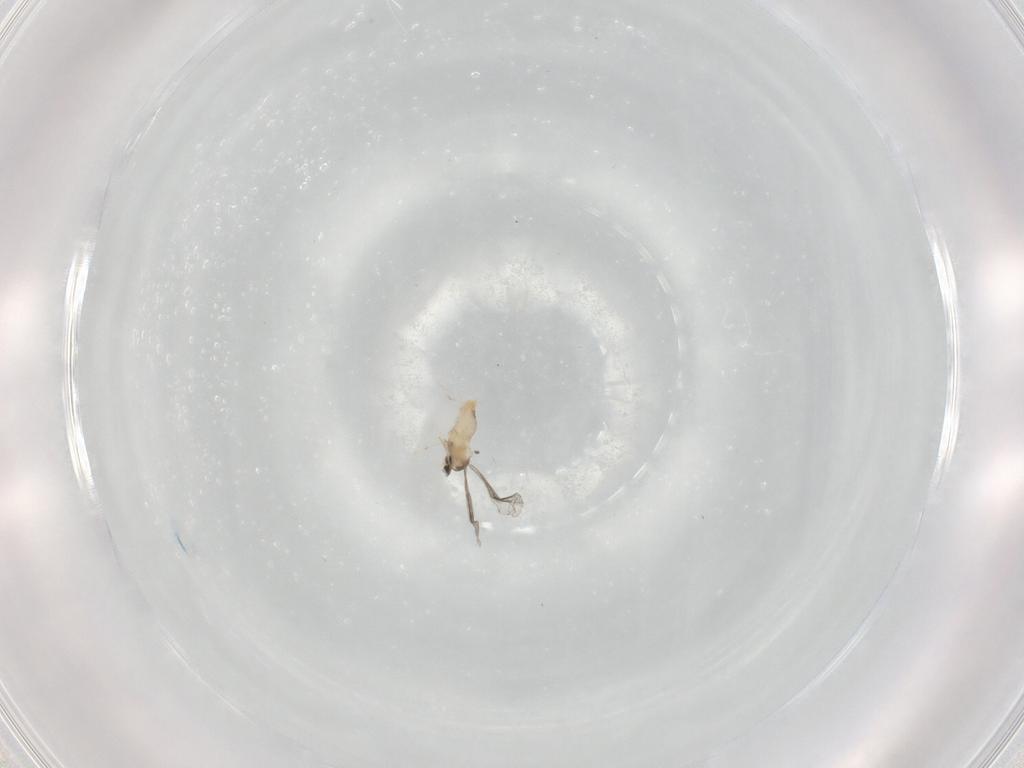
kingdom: Animalia
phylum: Arthropoda
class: Insecta
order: Diptera
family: Cecidomyiidae
